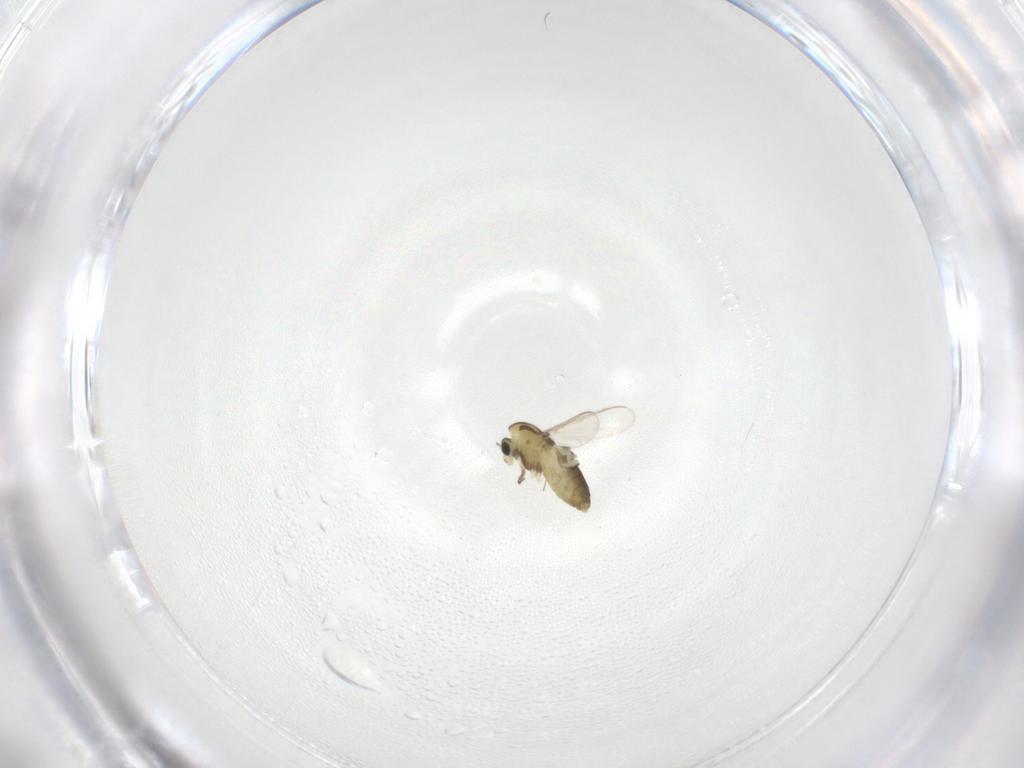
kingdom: Animalia
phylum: Arthropoda
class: Insecta
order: Diptera
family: Chironomidae
